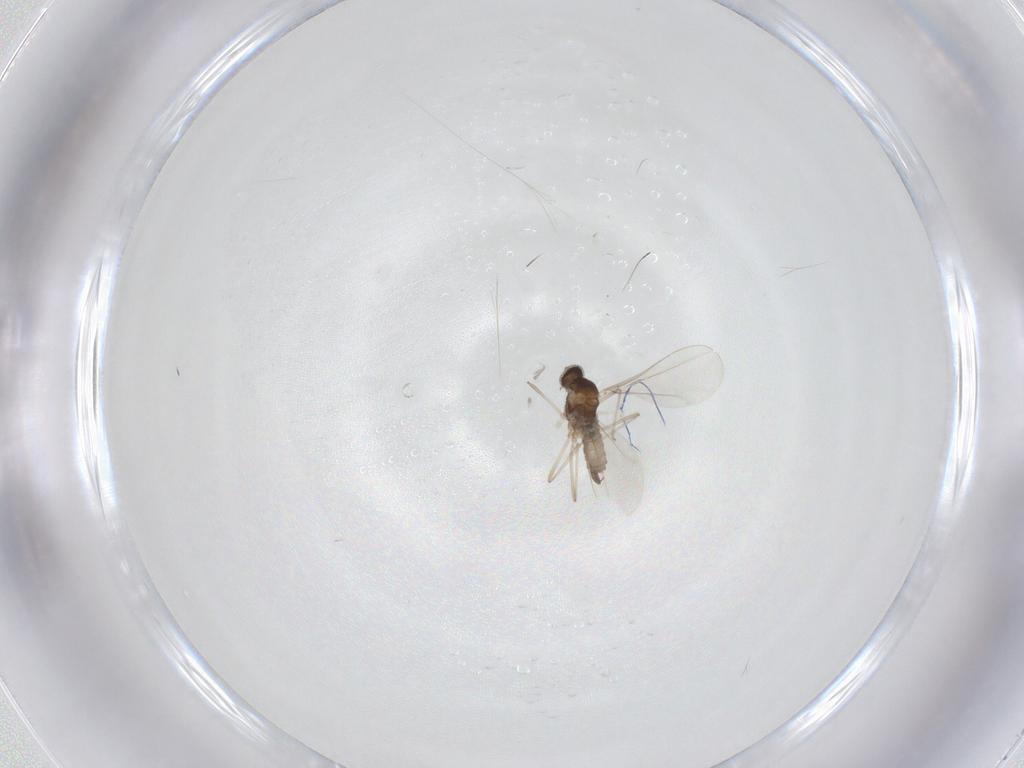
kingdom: Animalia
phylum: Arthropoda
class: Insecta
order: Diptera
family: Cecidomyiidae
